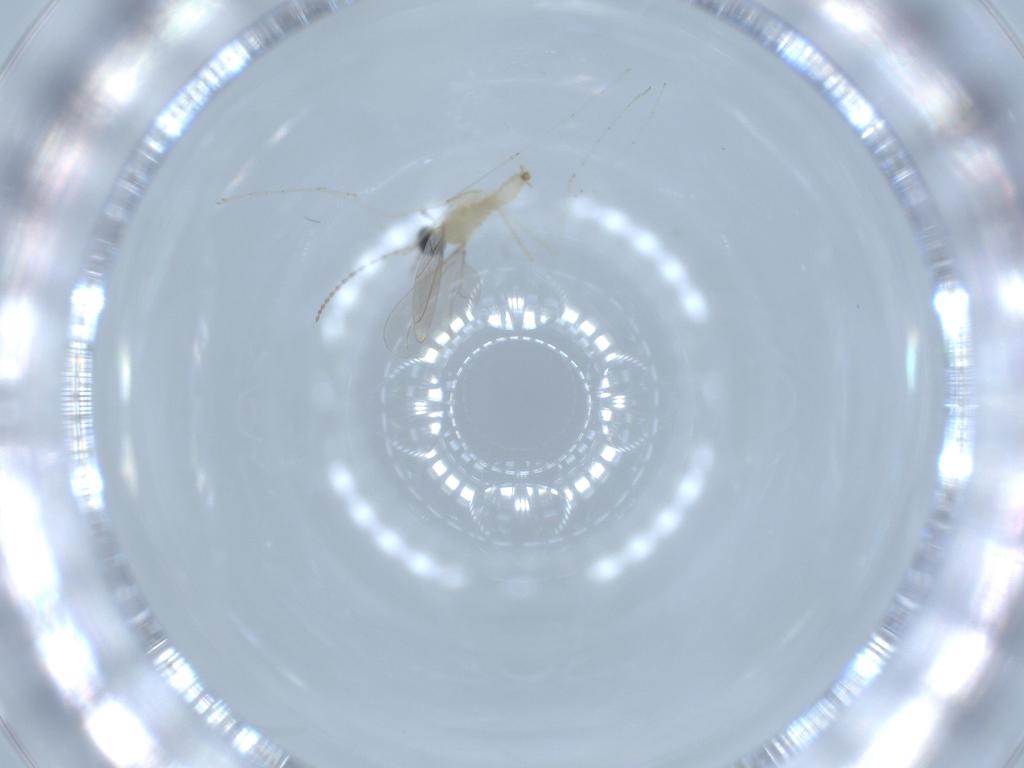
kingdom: Animalia
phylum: Arthropoda
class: Insecta
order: Diptera
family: Cecidomyiidae
